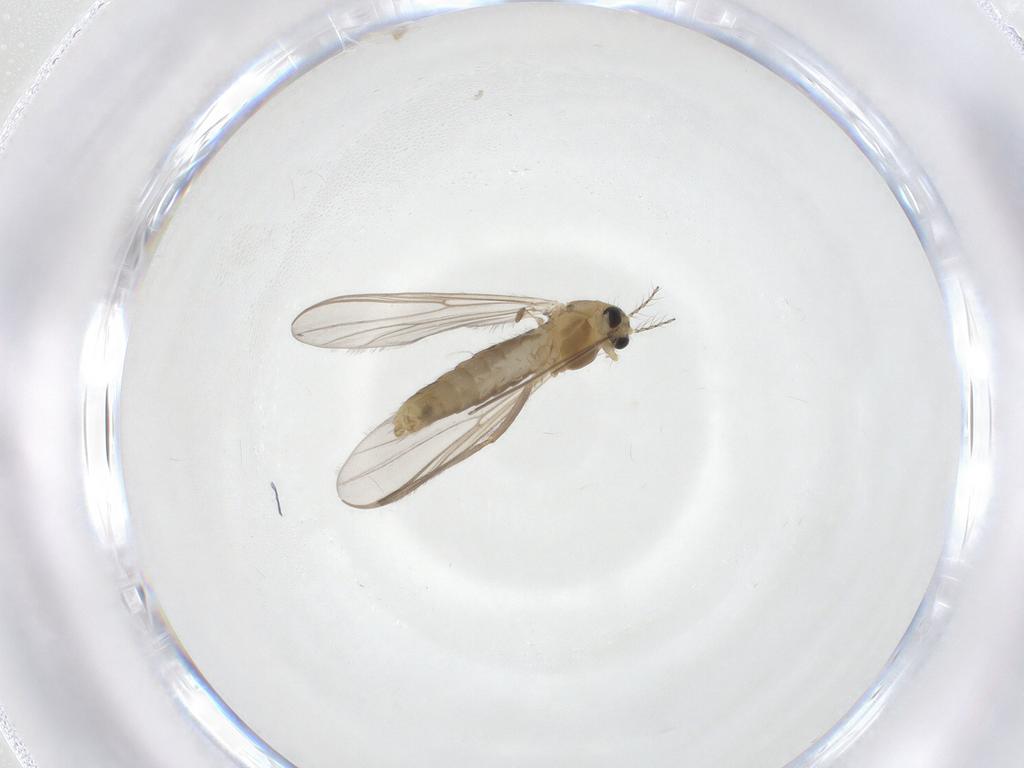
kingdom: Animalia
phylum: Arthropoda
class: Insecta
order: Diptera
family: Chironomidae
